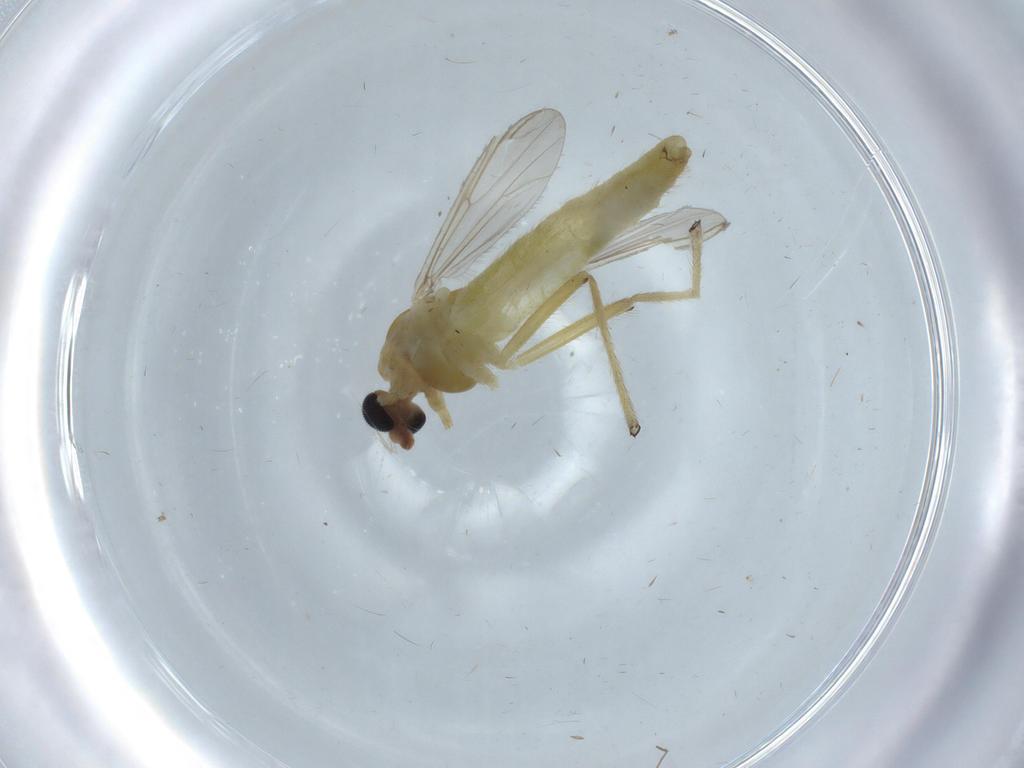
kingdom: Animalia
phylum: Arthropoda
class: Insecta
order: Diptera
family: Chironomidae
